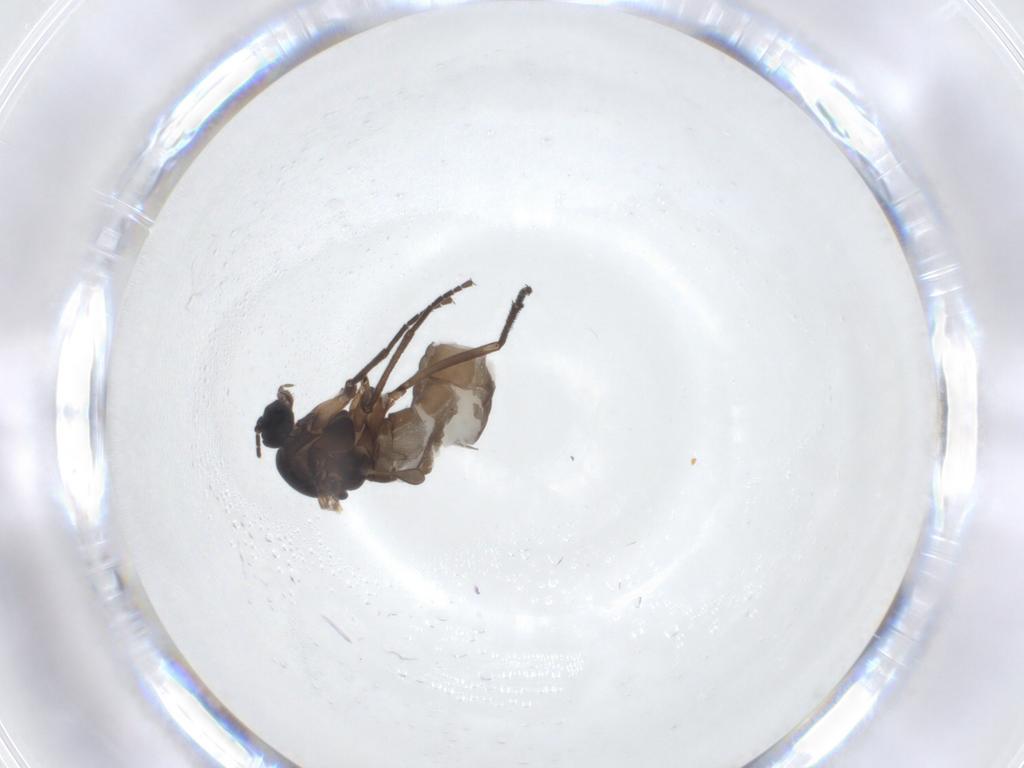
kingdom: Animalia
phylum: Arthropoda
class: Insecta
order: Diptera
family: Sciaridae
